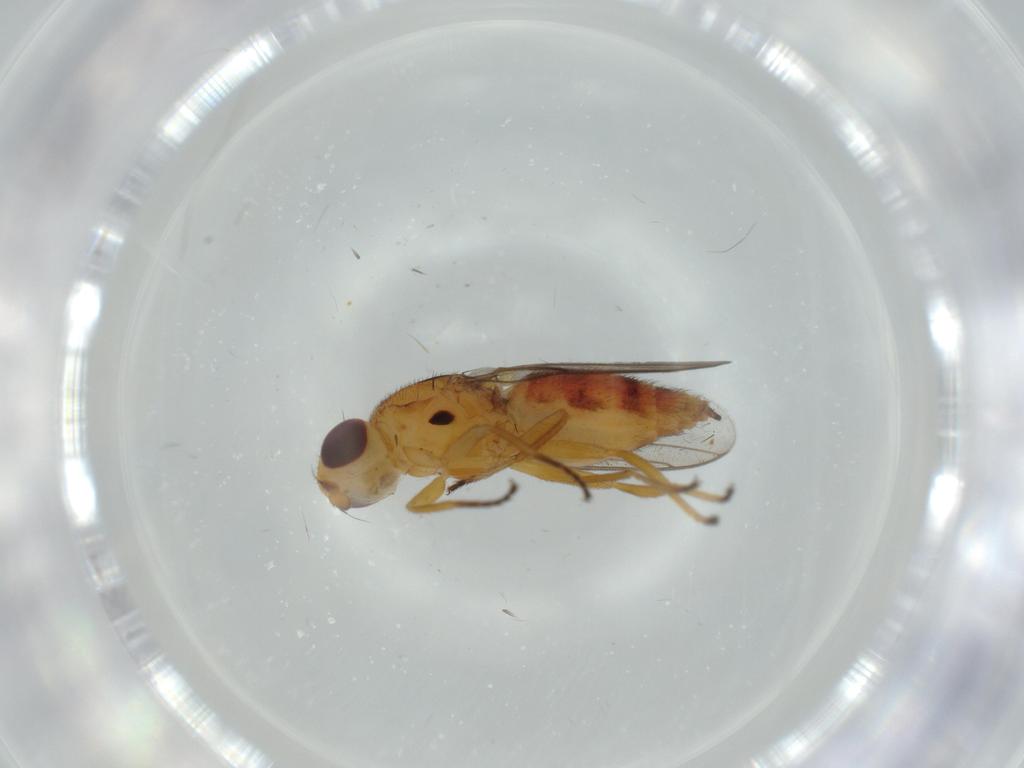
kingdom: Animalia
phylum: Arthropoda
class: Insecta
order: Diptera
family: Chloropidae
